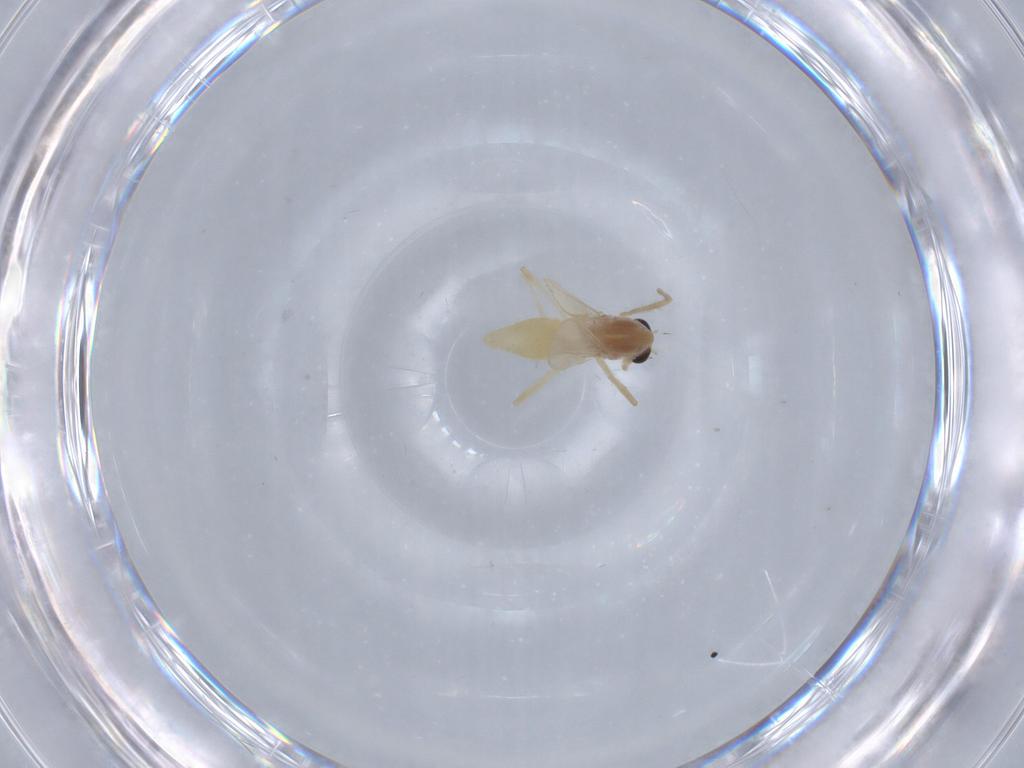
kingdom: Animalia
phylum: Arthropoda
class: Insecta
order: Diptera
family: Chironomidae
